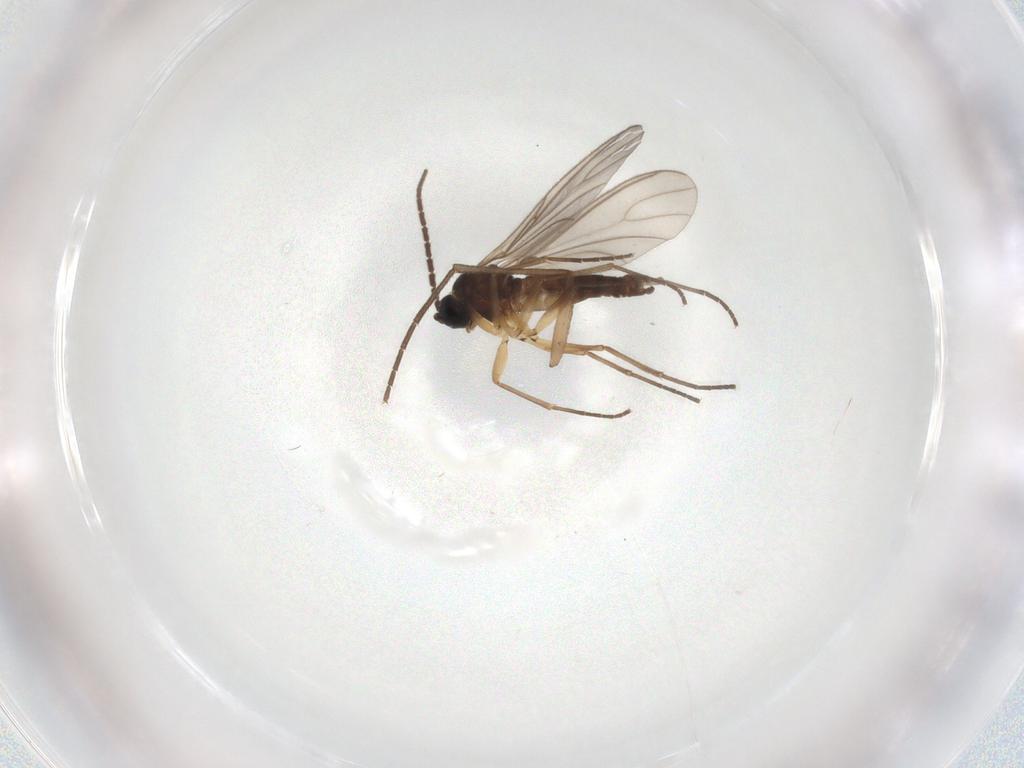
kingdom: Animalia
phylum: Arthropoda
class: Insecta
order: Diptera
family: Sciaridae
